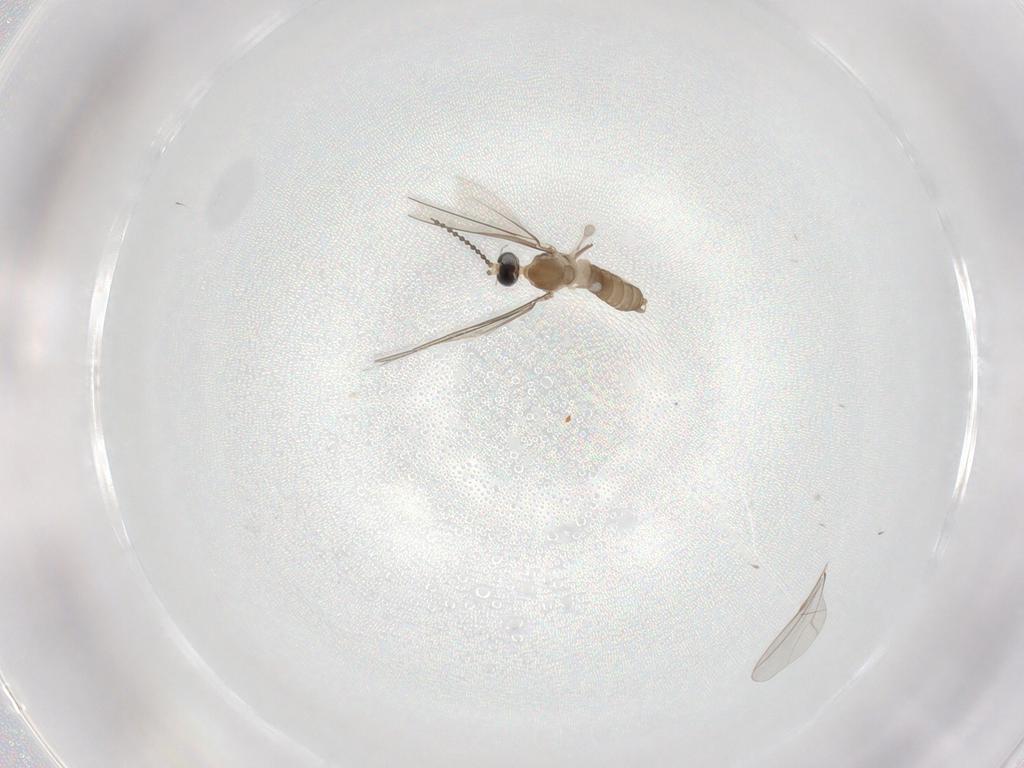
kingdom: Animalia
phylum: Arthropoda
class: Insecta
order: Diptera
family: Cecidomyiidae
